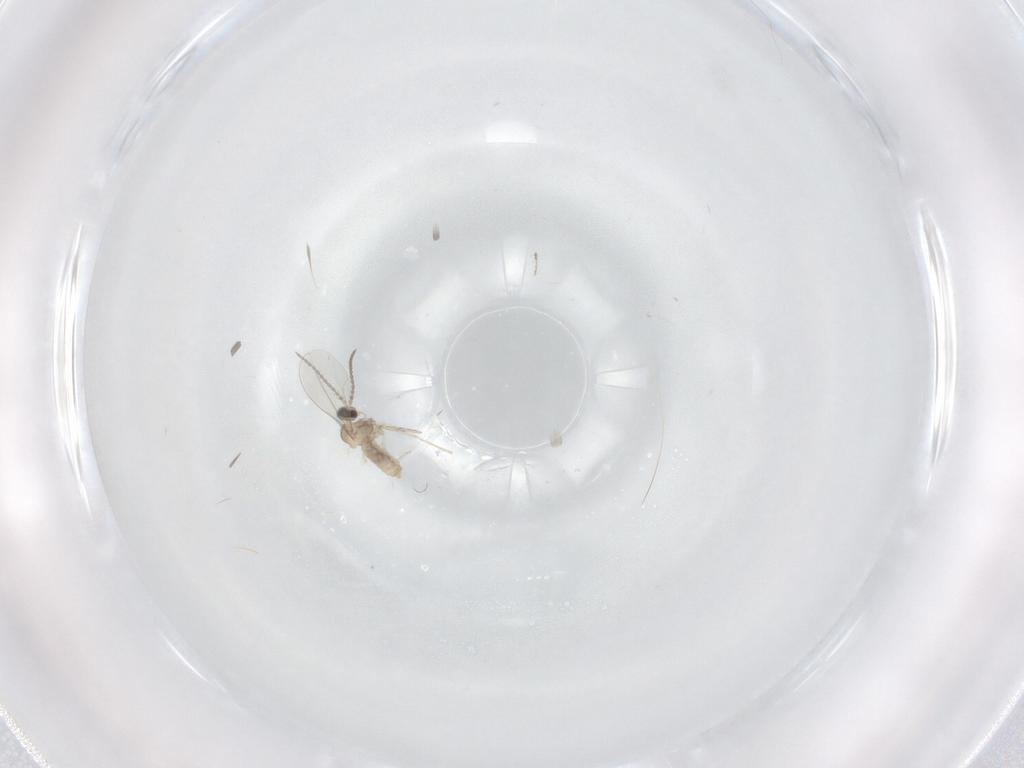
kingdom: Animalia
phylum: Arthropoda
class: Insecta
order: Diptera
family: Cecidomyiidae
